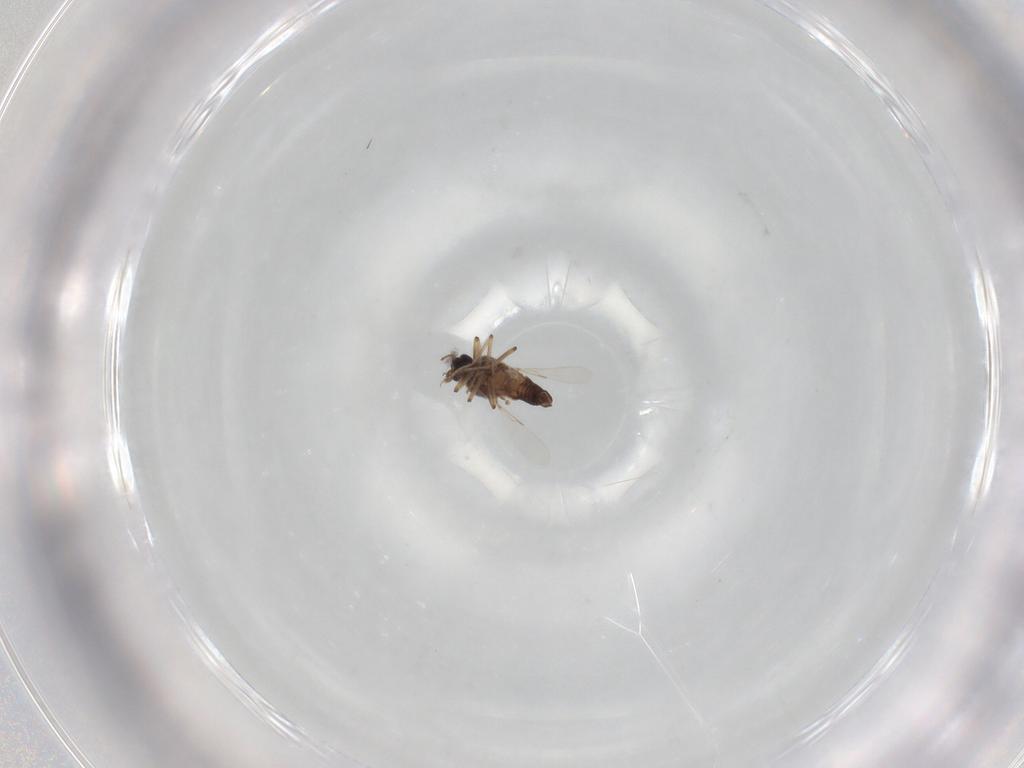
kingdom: Animalia
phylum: Arthropoda
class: Insecta
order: Diptera
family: Ceratopogonidae
